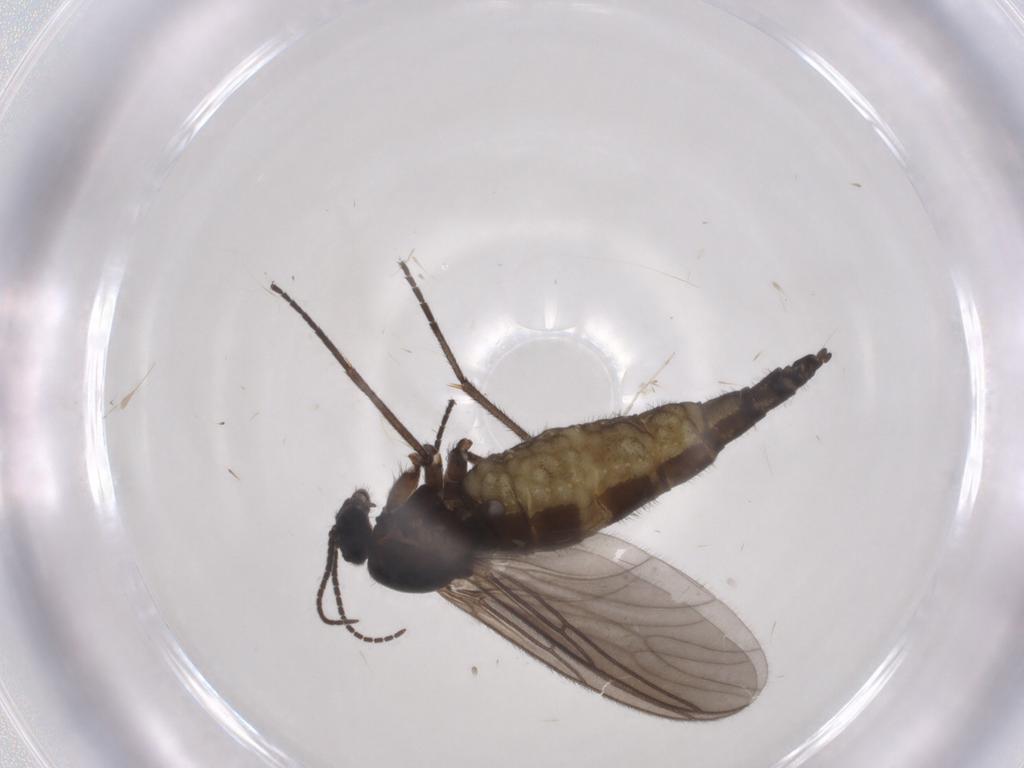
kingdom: Animalia
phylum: Arthropoda
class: Insecta
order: Diptera
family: Sciaridae
